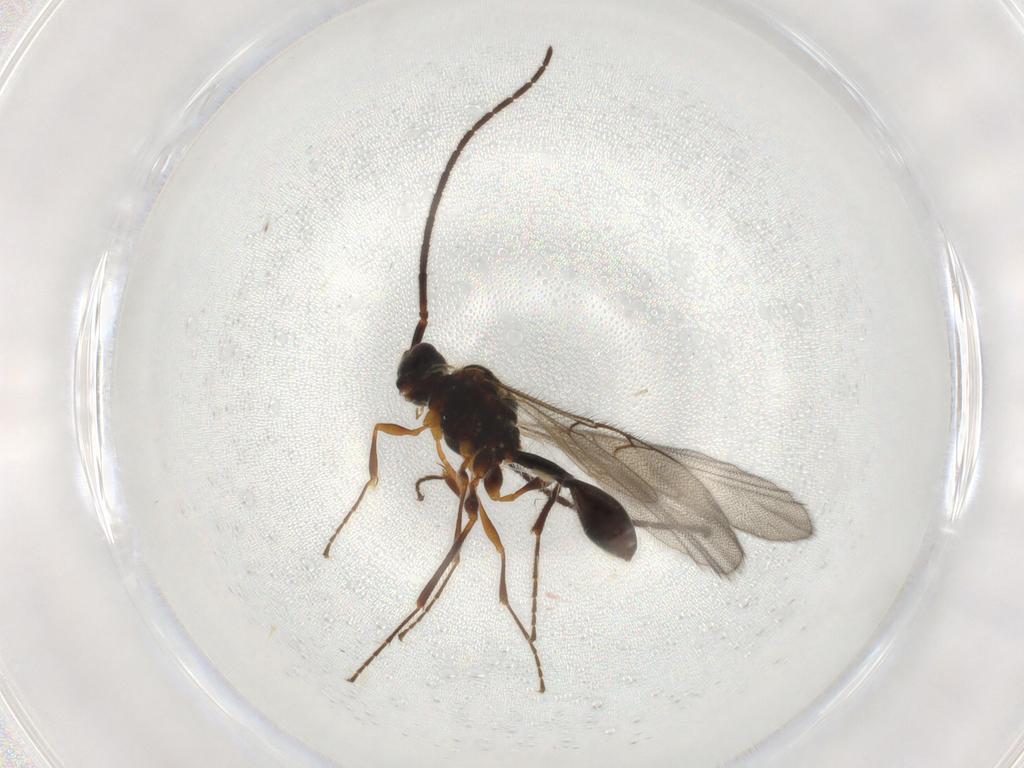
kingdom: Animalia
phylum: Arthropoda
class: Insecta
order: Hymenoptera
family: Diapriidae
